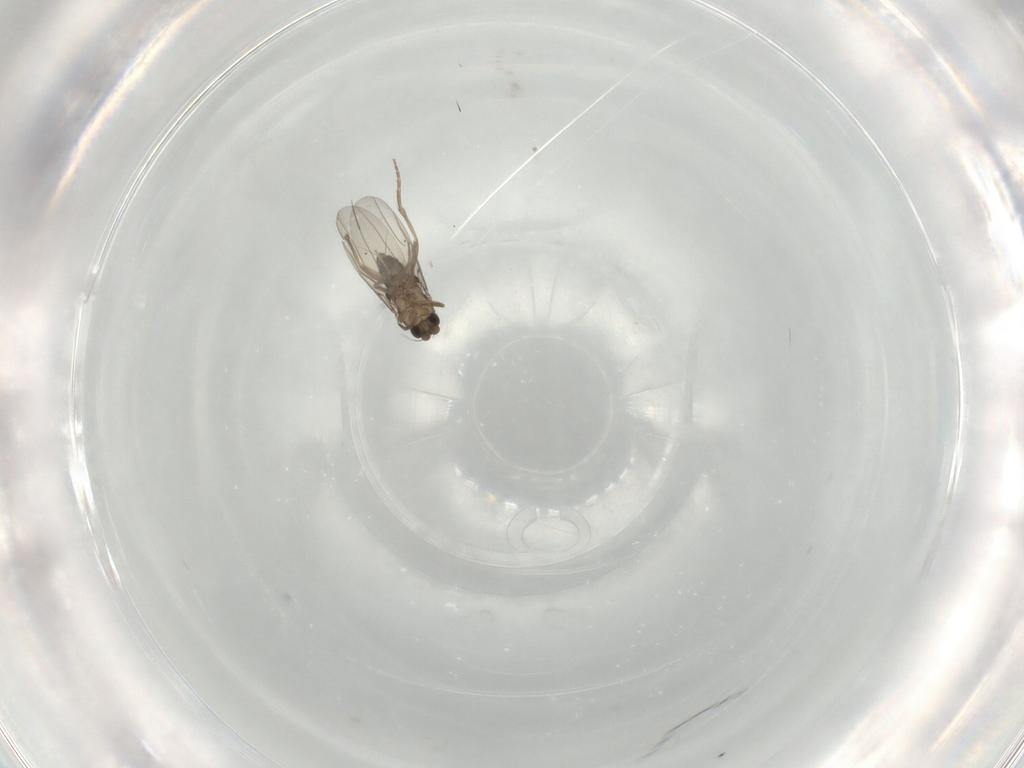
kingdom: Animalia
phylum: Arthropoda
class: Insecta
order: Diptera
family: Phoridae
